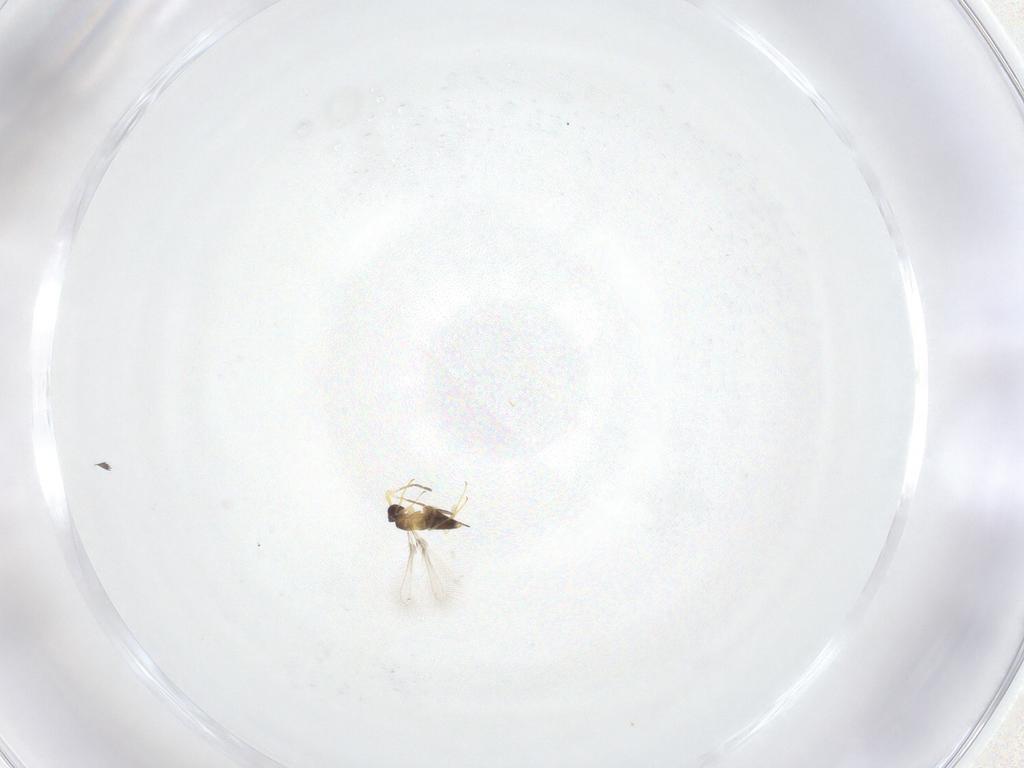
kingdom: Animalia
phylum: Arthropoda
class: Insecta
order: Hymenoptera
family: Mymaridae
